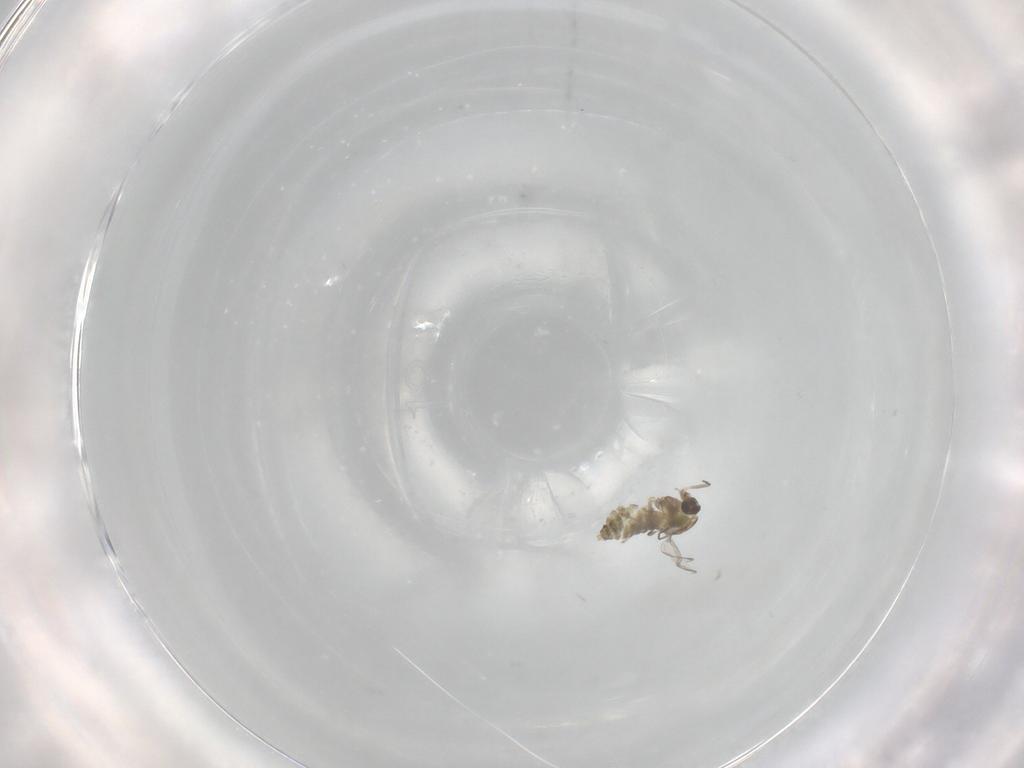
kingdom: Animalia
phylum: Arthropoda
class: Insecta
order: Diptera
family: Chironomidae
